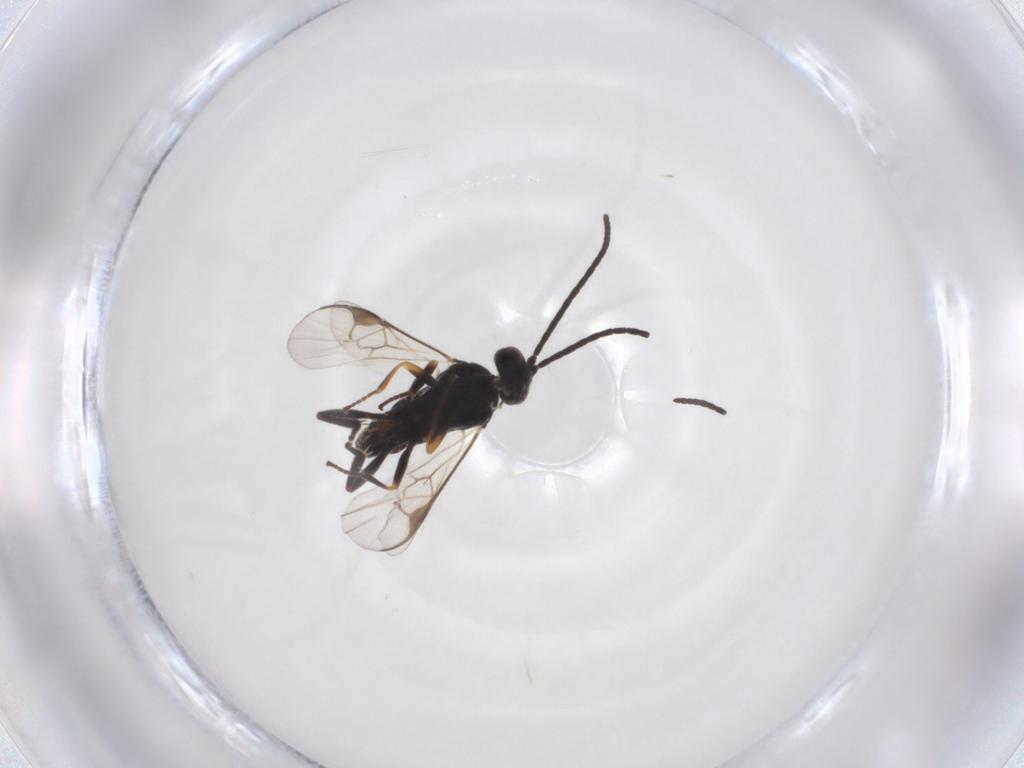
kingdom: Animalia
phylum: Arthropoda
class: Insecta
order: Hymenoptera
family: Braconidae
